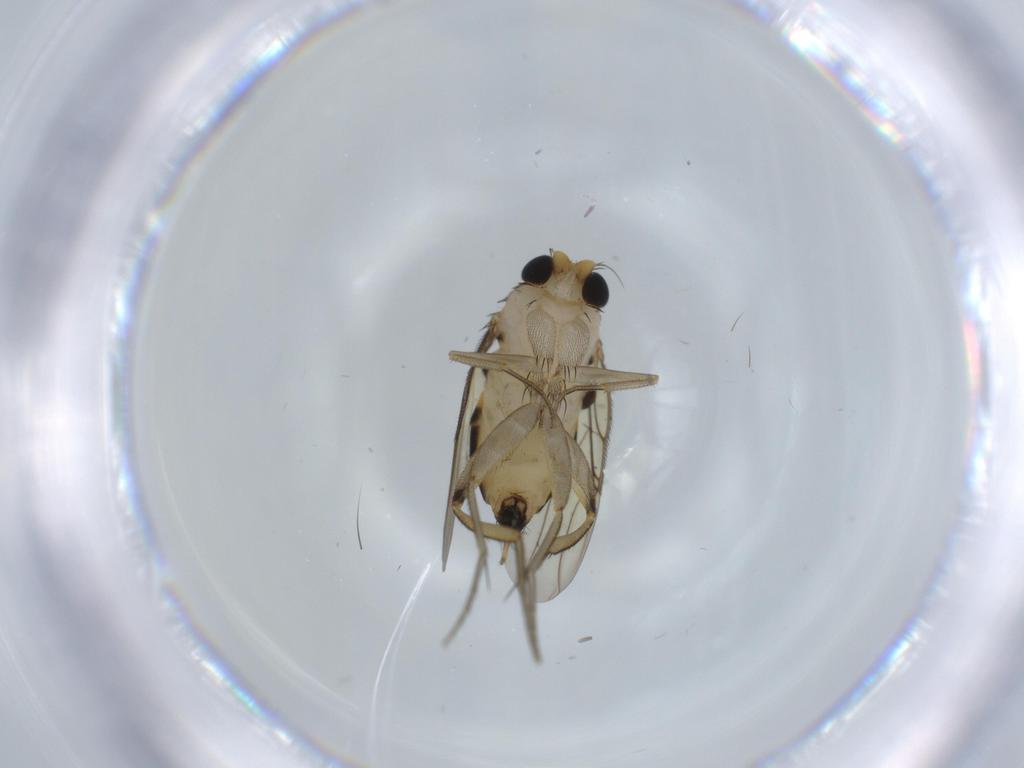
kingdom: Animalia
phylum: Arthropoda
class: Insecta
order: Diptera
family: Phoridae
